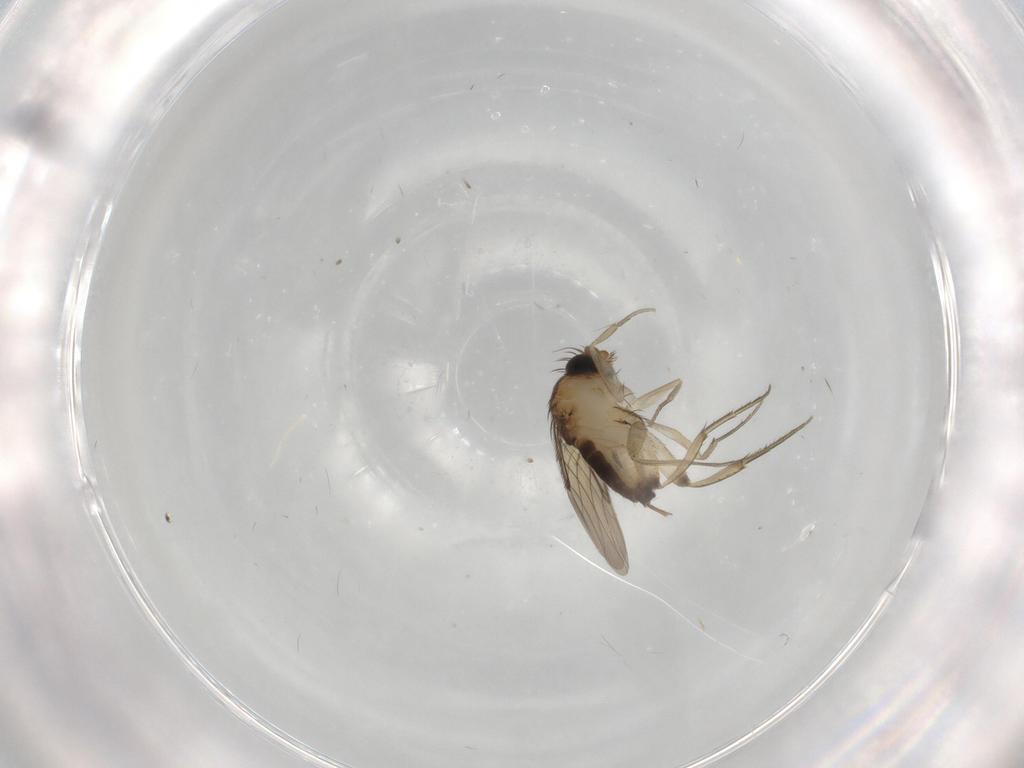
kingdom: Animalia
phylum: Arthropoda
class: Insecta
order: Diptera
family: Phoridae
